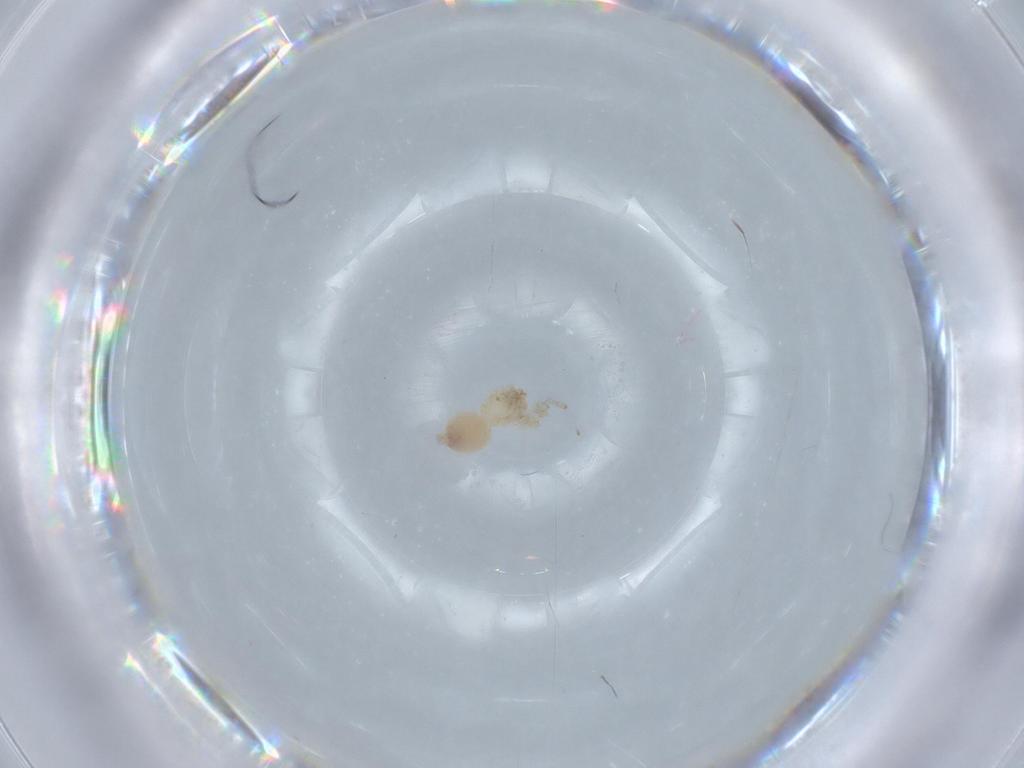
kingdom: Animalia
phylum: Arthropoda
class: Arachnida
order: Araneae
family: Oonopidae
